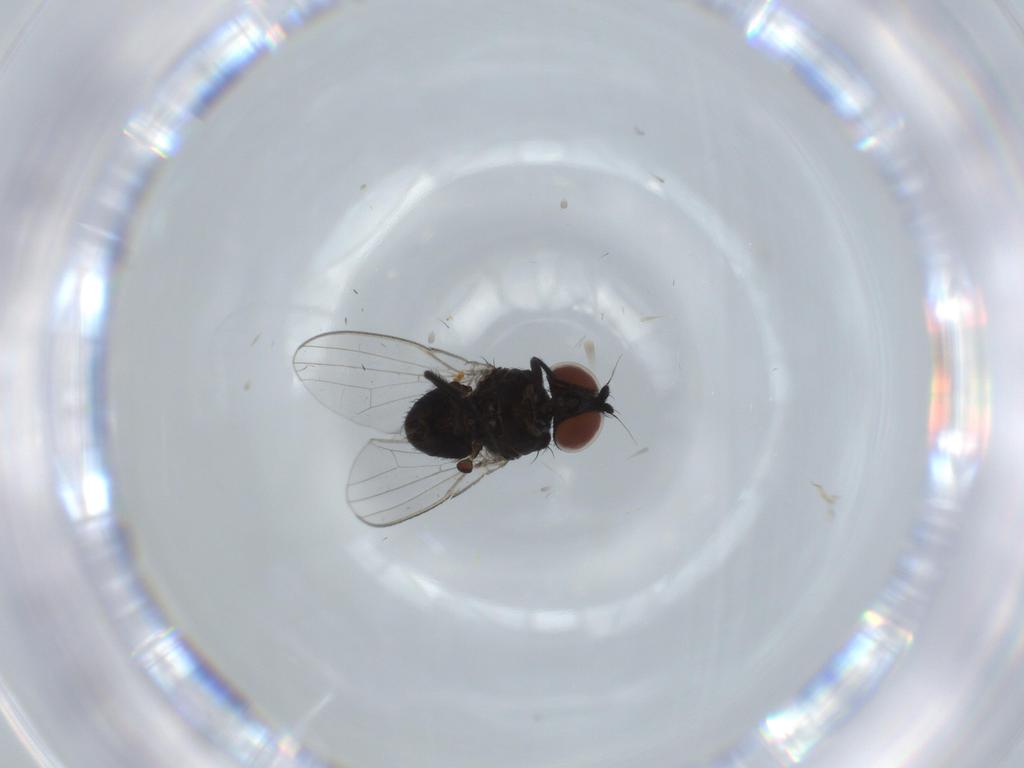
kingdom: Animalia
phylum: Arthropoda
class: Insecta
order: Diptera
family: Milichiidae
